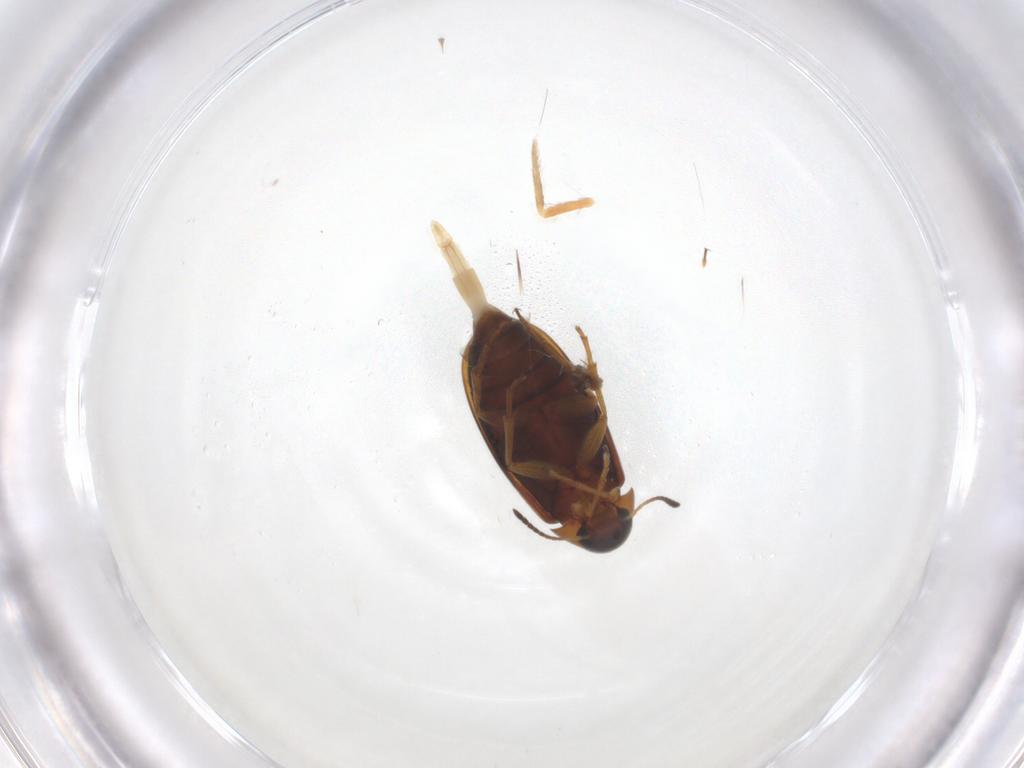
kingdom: Animalia
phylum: Arthropoda
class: Insecta
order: Coleoptera
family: Scraptiidae
